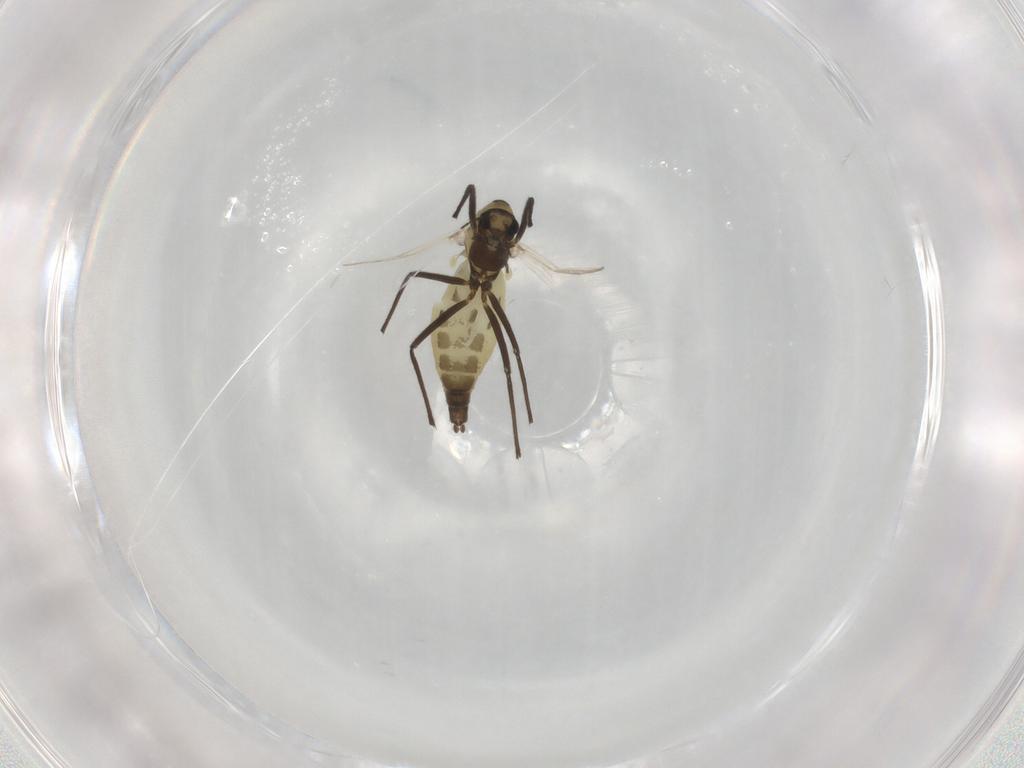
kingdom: Animalia
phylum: Arthropoda
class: Insecta
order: Diptera
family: Chironomidae
